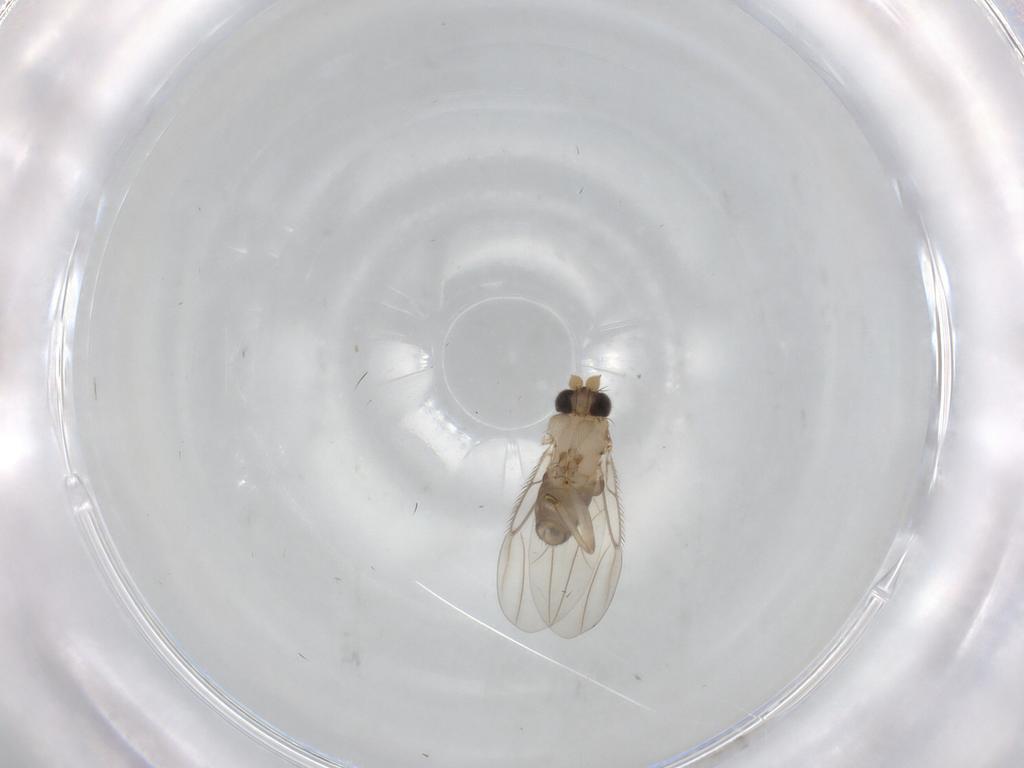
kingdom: Animalia
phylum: Arthropoda
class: Insecta
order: Diptera
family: Limoniidae
